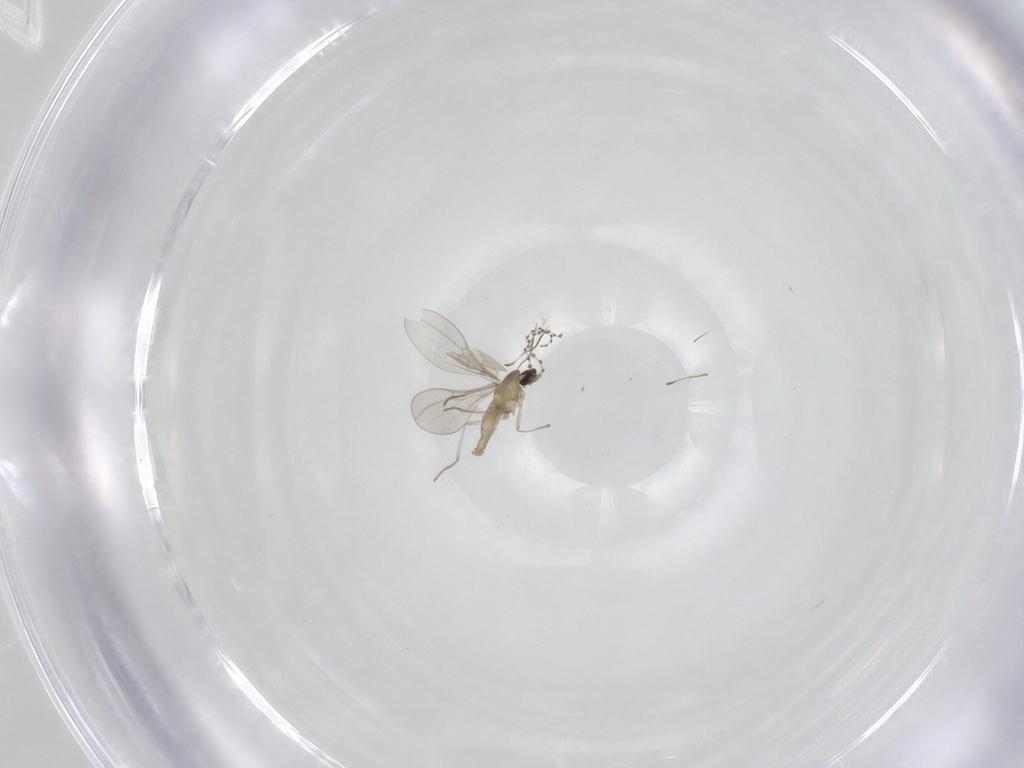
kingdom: Animalia
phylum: Arthropoda
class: Insecta
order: Diptera
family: Cecidomyiidae
